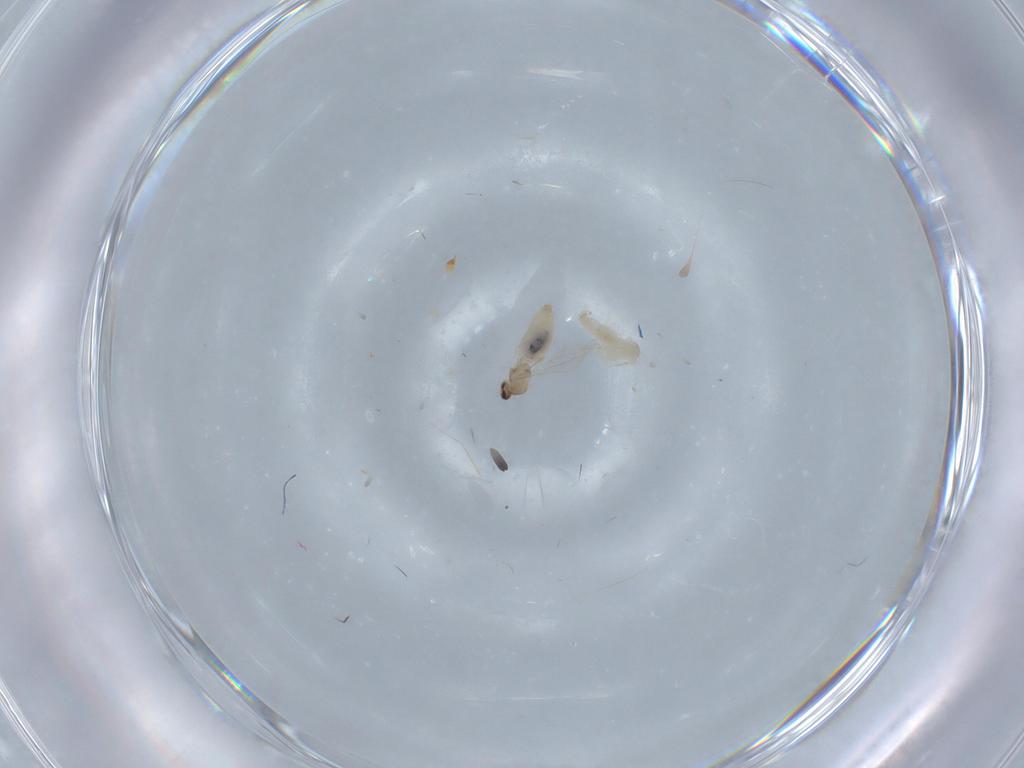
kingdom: Animalia
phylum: Arthropoda
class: Insecta
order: Diptera
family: Cecidomyiidae
